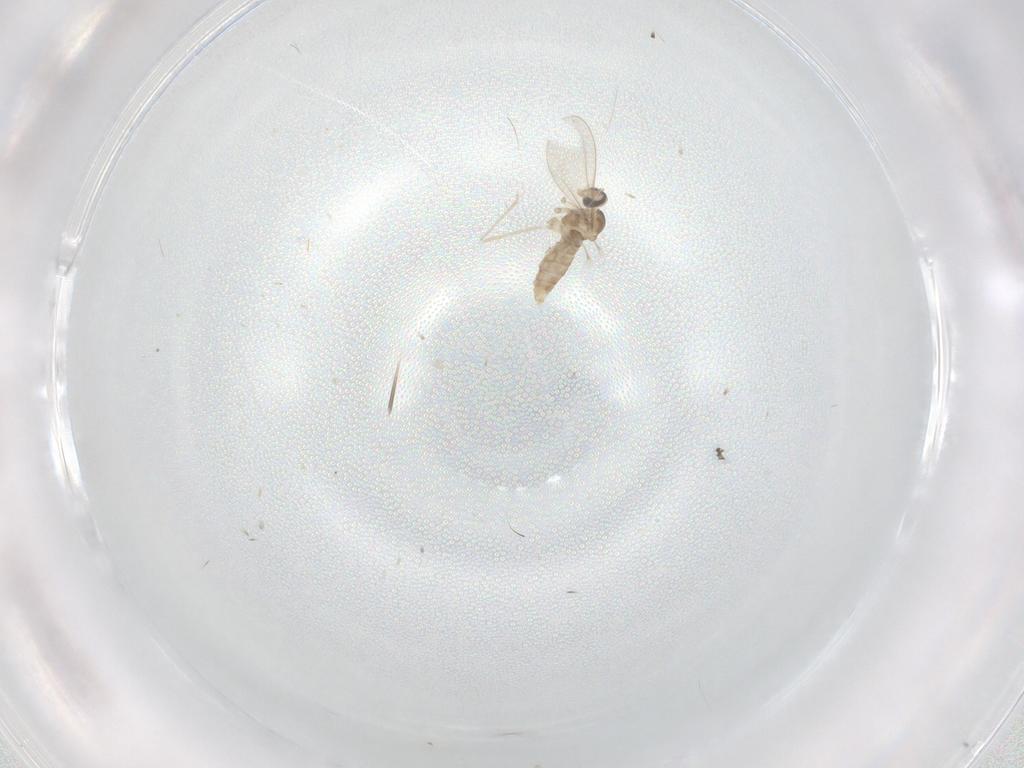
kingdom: Animalia
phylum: Arthropoda
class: Insecta
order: Diptera
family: Cecidomyiidae
